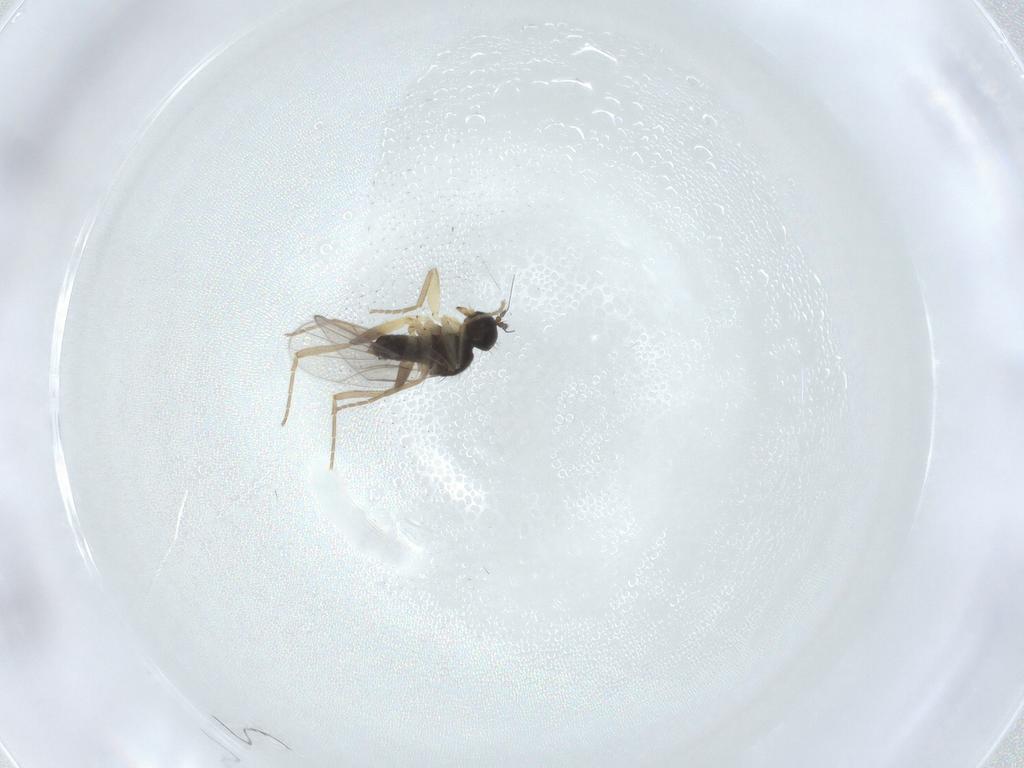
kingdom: Animalia
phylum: Arthropoda
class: Insecta
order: Diptera
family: Hybotidae
